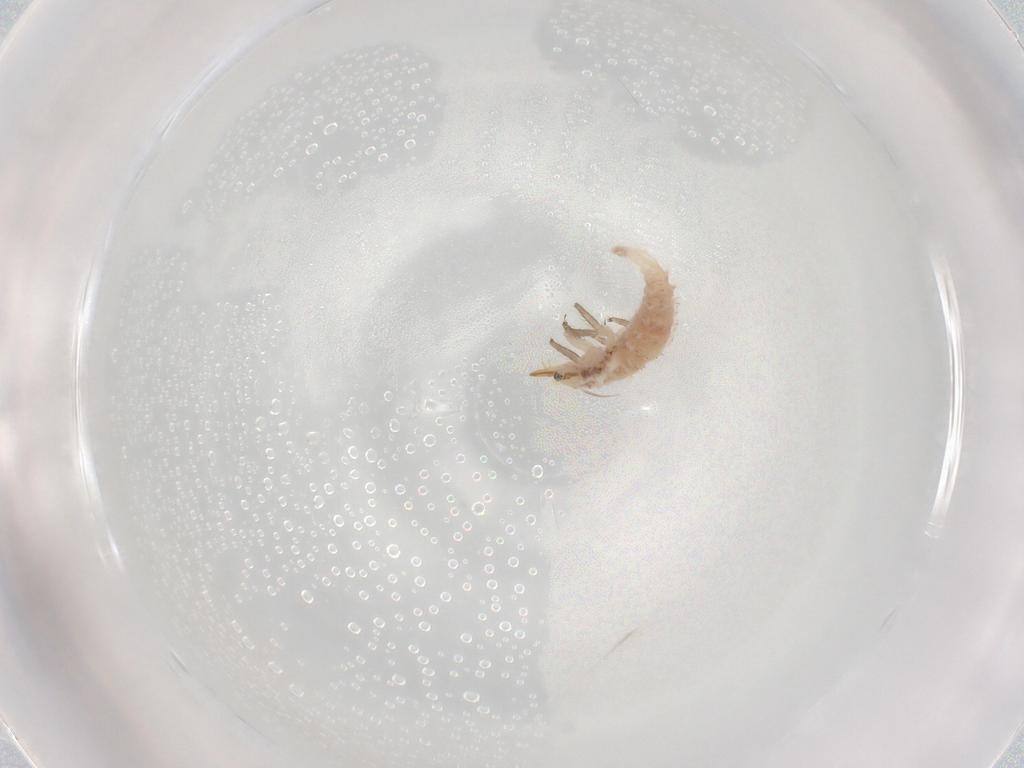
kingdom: Animalia
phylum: Arthropoda
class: Insecta
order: Neuroptera
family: Chrysopidae
